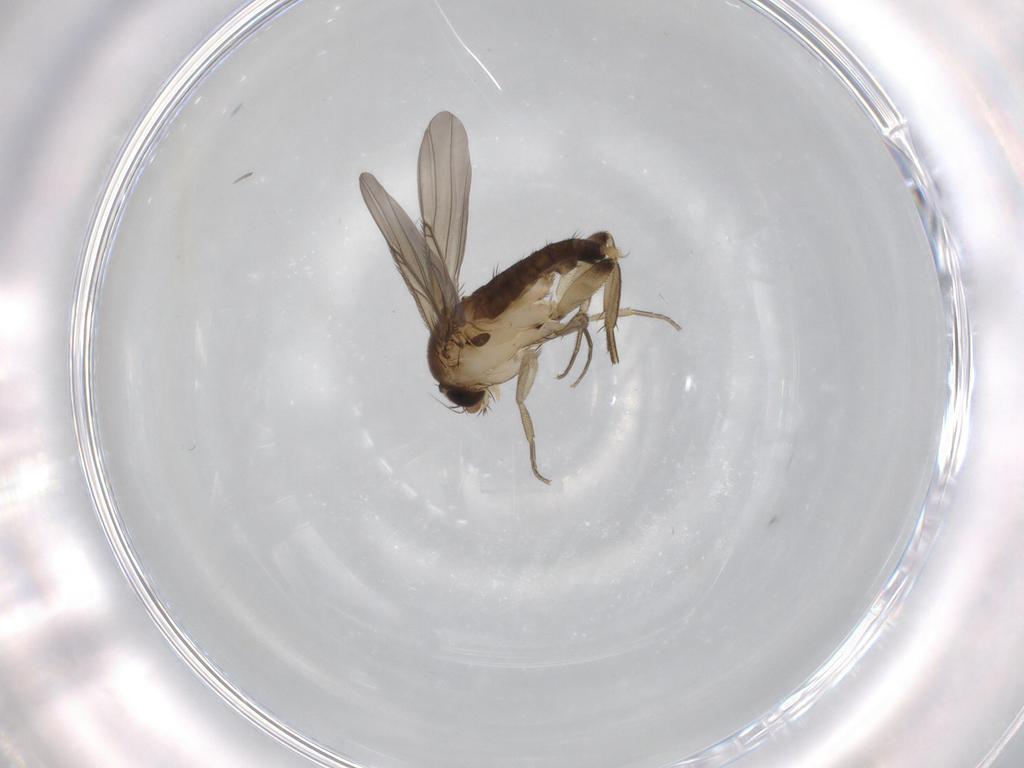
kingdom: Animalia
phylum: Arthropoda
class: Insecta
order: Diptera
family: Phoridae
